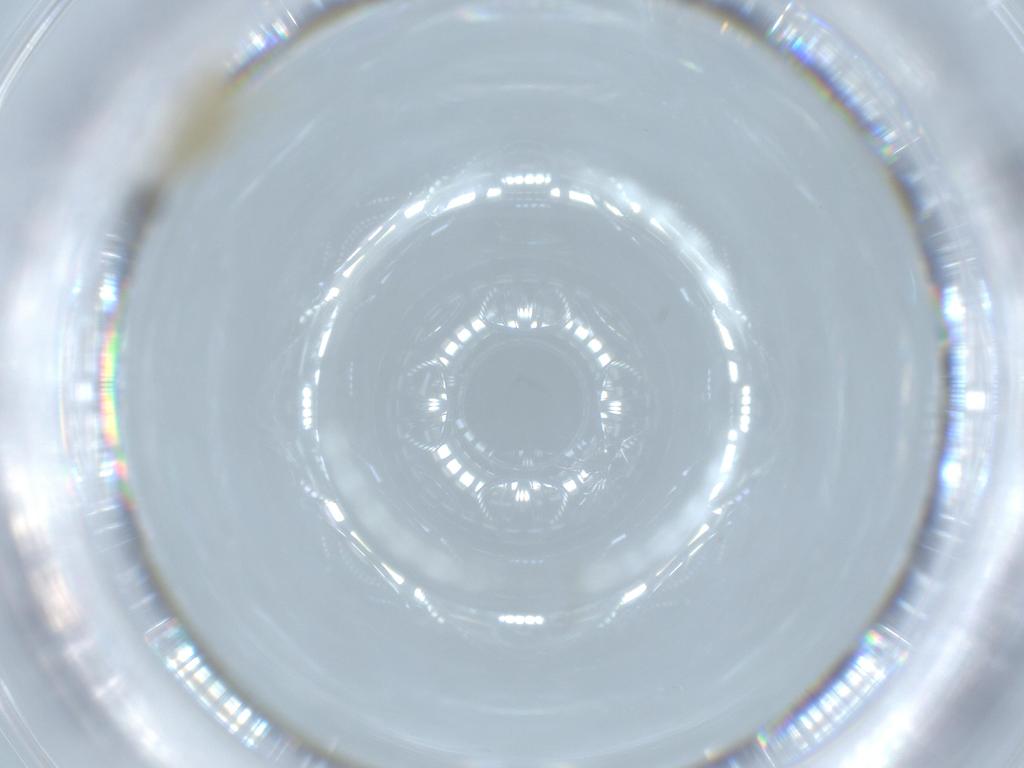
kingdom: Animalia
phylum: Arthropoda
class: Insecta
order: Diptera
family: Cecidomyiidae
